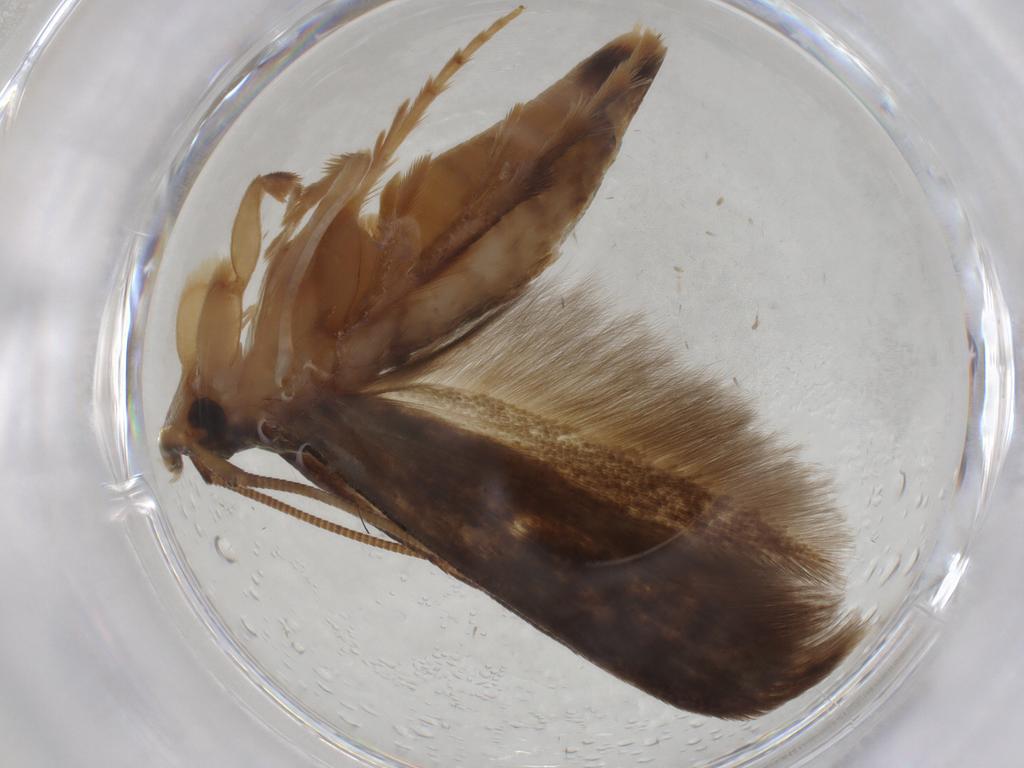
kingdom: Animalia
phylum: Arthropoda
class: Insecta
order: Lepidoptera
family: Tineidae
